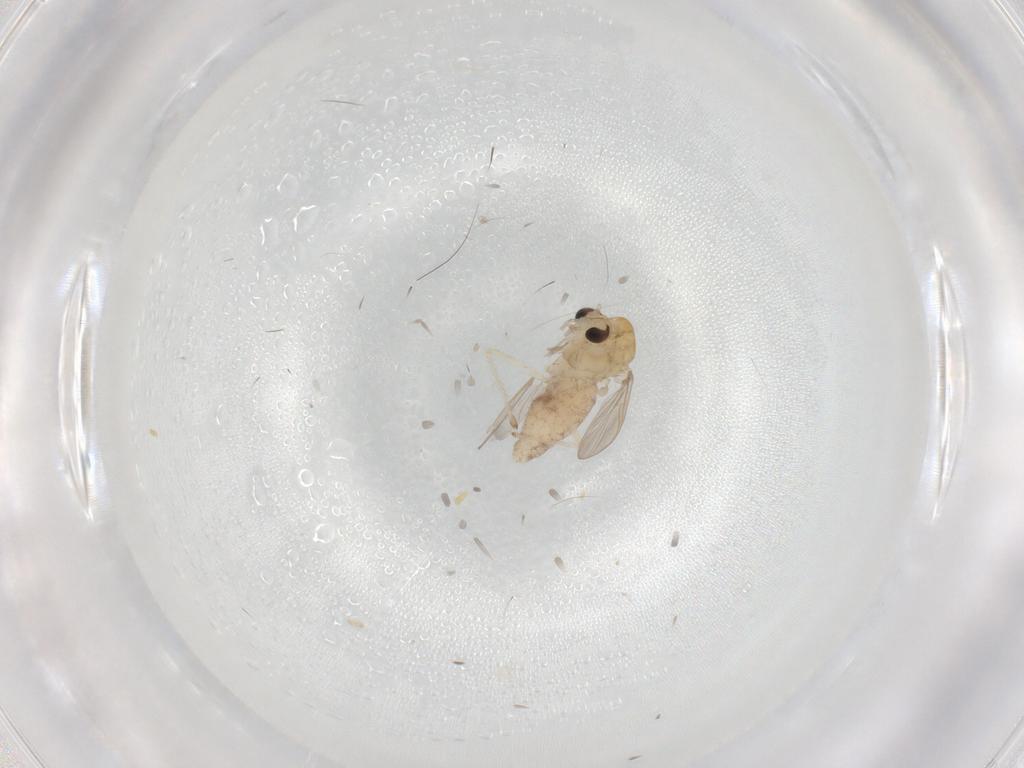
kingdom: Animalia
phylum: Arthropoda
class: Insecta
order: Diptera
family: Chironomidae
